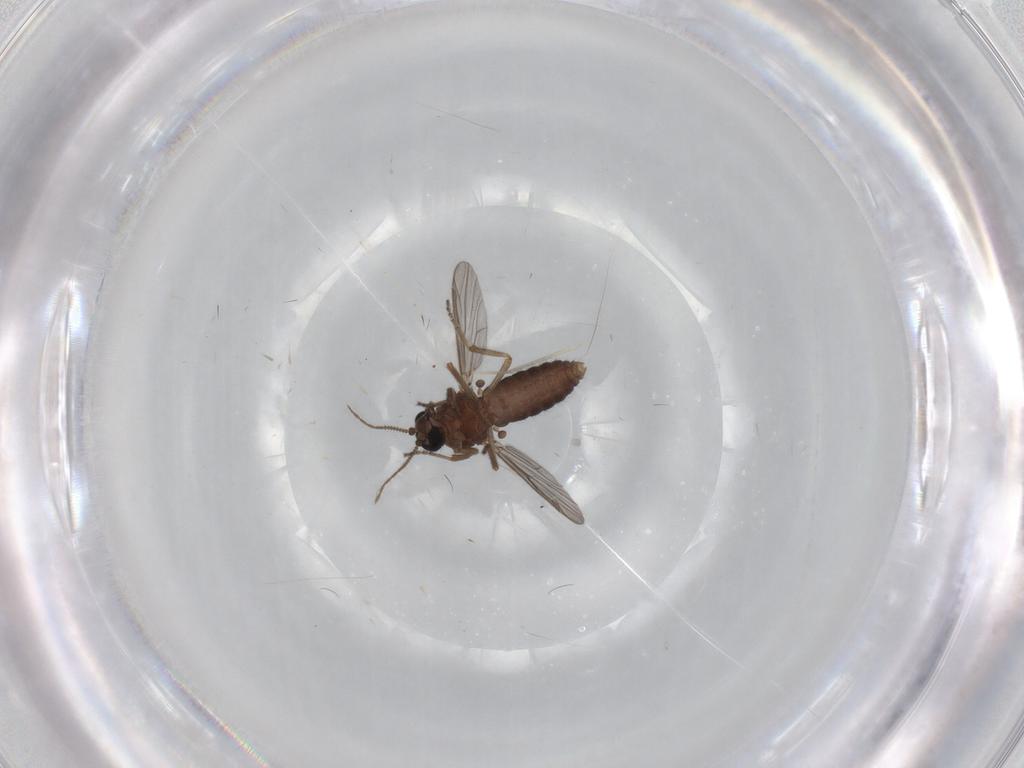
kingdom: Animalia
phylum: Arthropoda
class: Insecta
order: Diptera
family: Ceratopogonidae
